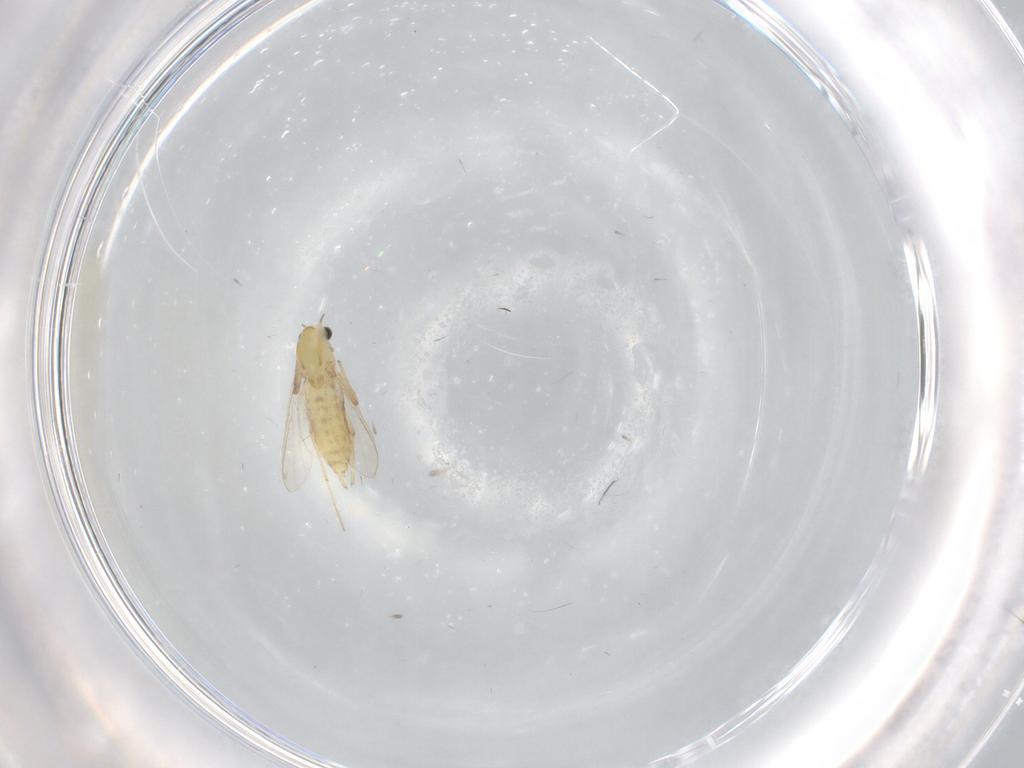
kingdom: Animalia
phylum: Arthropoda
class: Insecta
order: Diptera
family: Chironomidae
